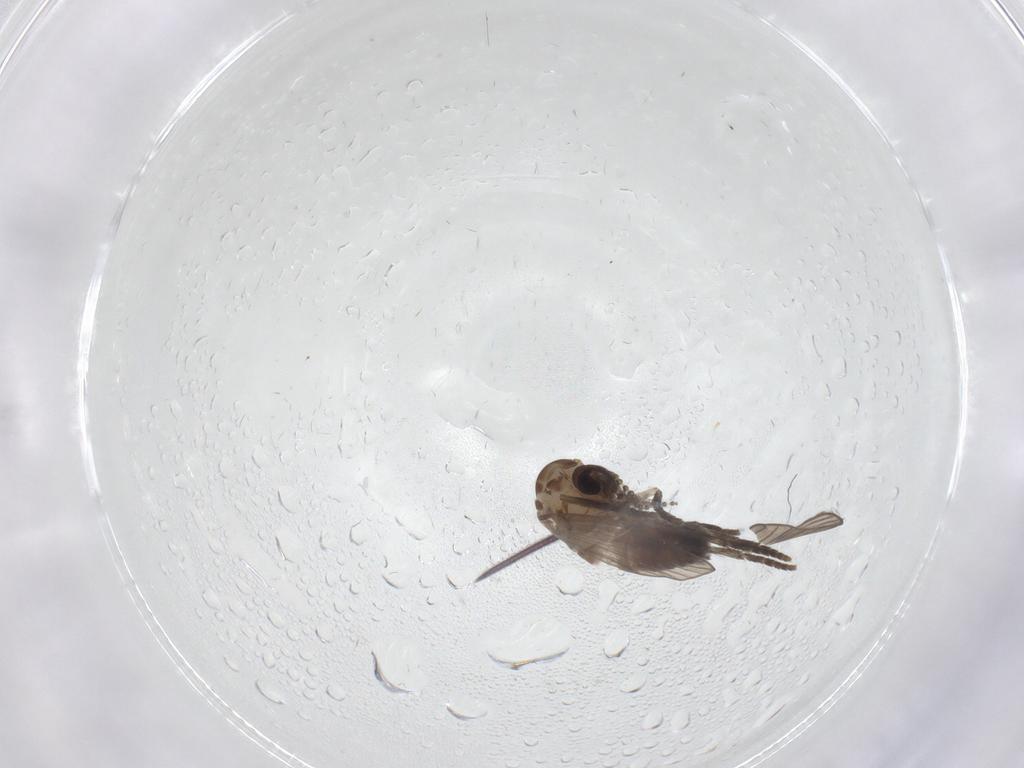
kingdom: Animalia
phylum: Arthropoda
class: Insecta
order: Diptera
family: Psychodidae
